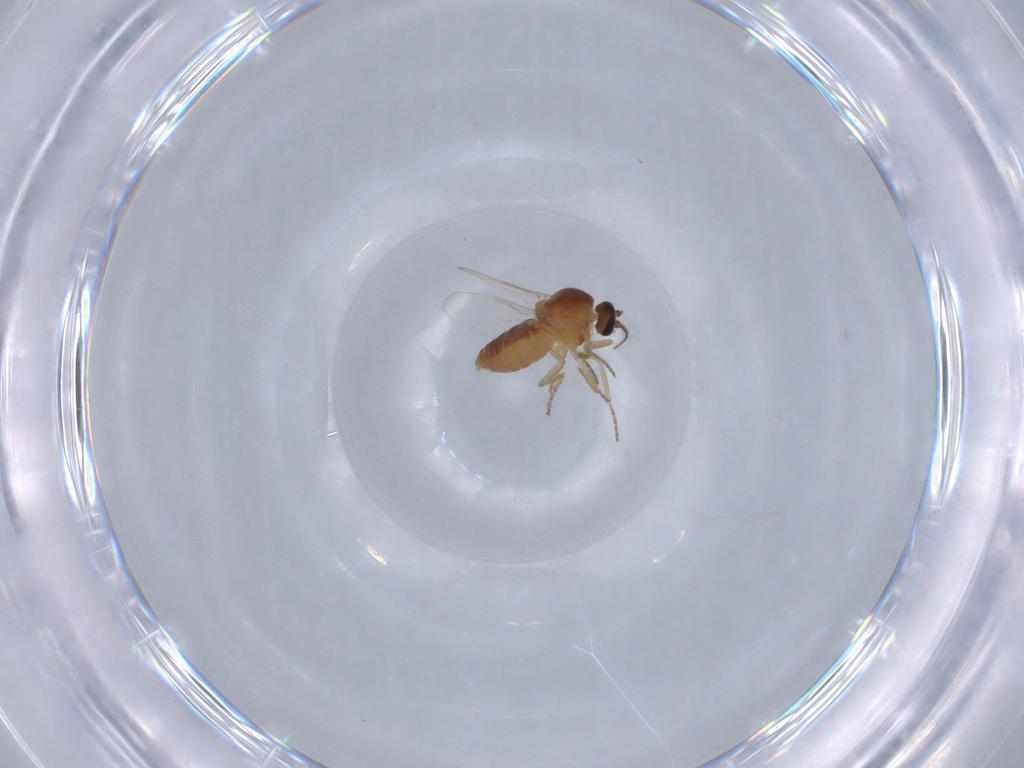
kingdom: Animalia
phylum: Arthropoda
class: Insecta
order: Diptera
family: Ceratopogonidae
